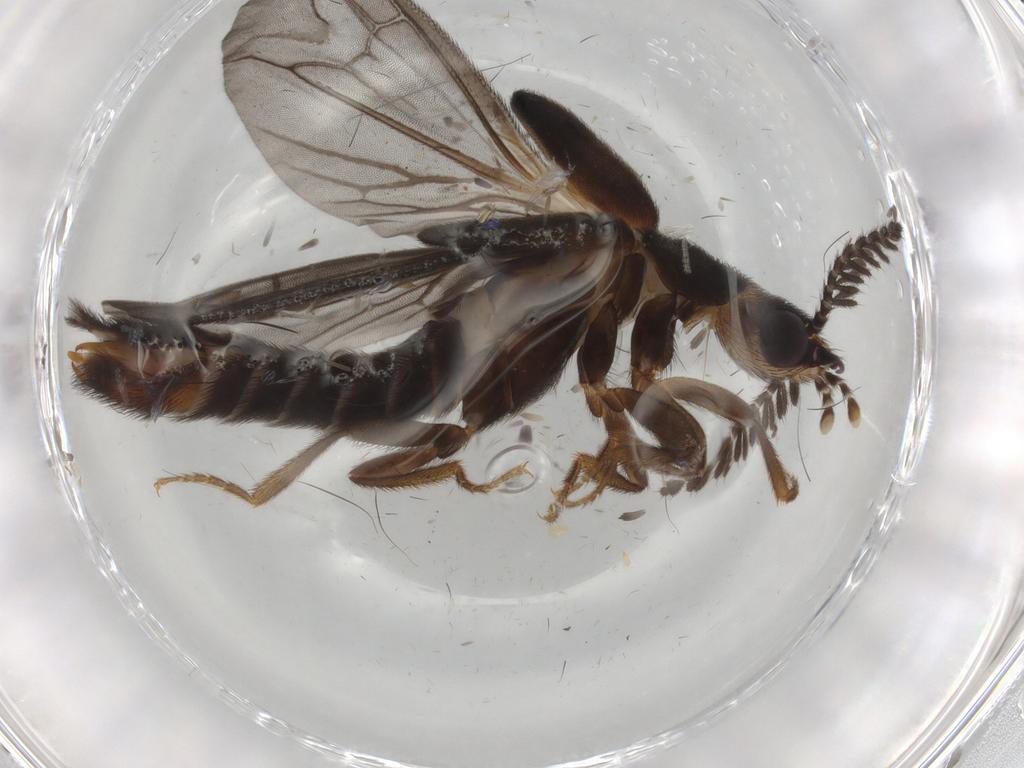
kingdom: Animalia
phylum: Arthropoda
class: Insecta
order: Coleoptera
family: Phengodidae
